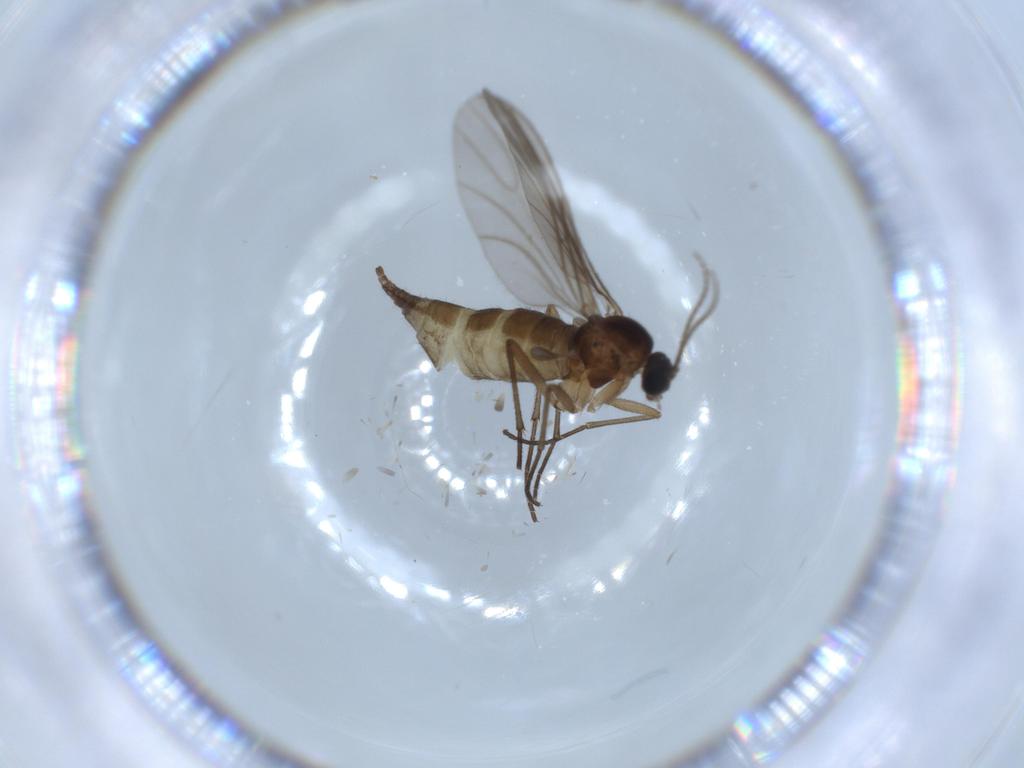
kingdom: Animalia
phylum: Arthropoda
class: Insecta
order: Diptera
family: Sciaridae
